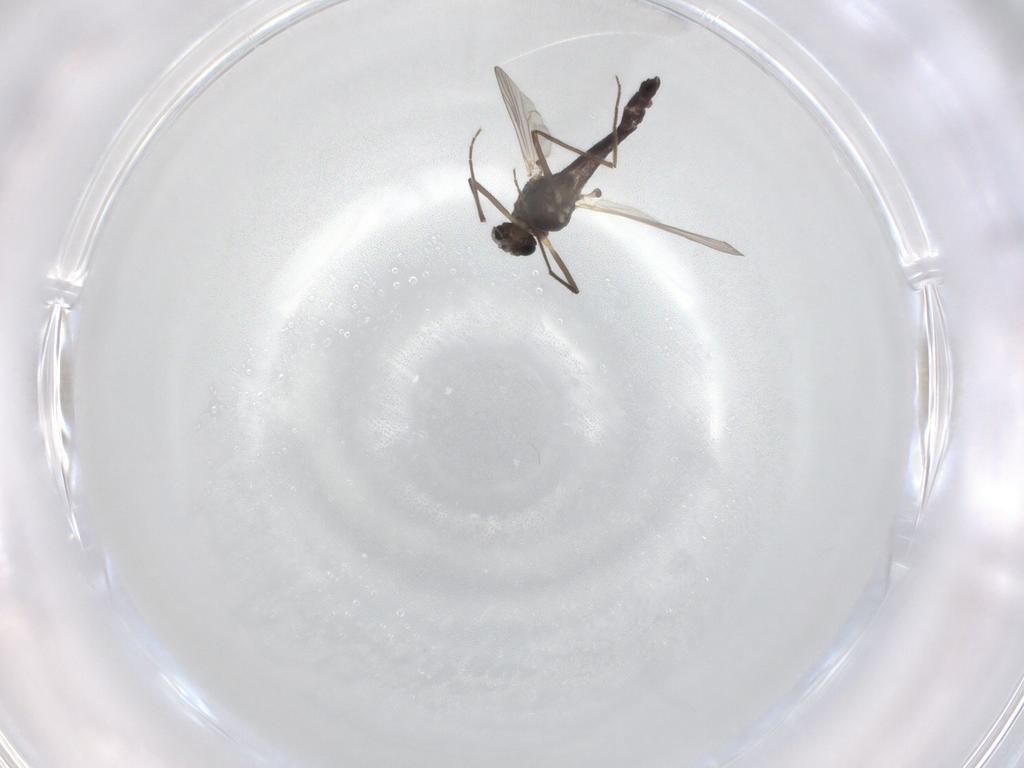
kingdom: Animalia
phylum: Arthropoda
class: Insecta
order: Diptera
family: Chironomidae
